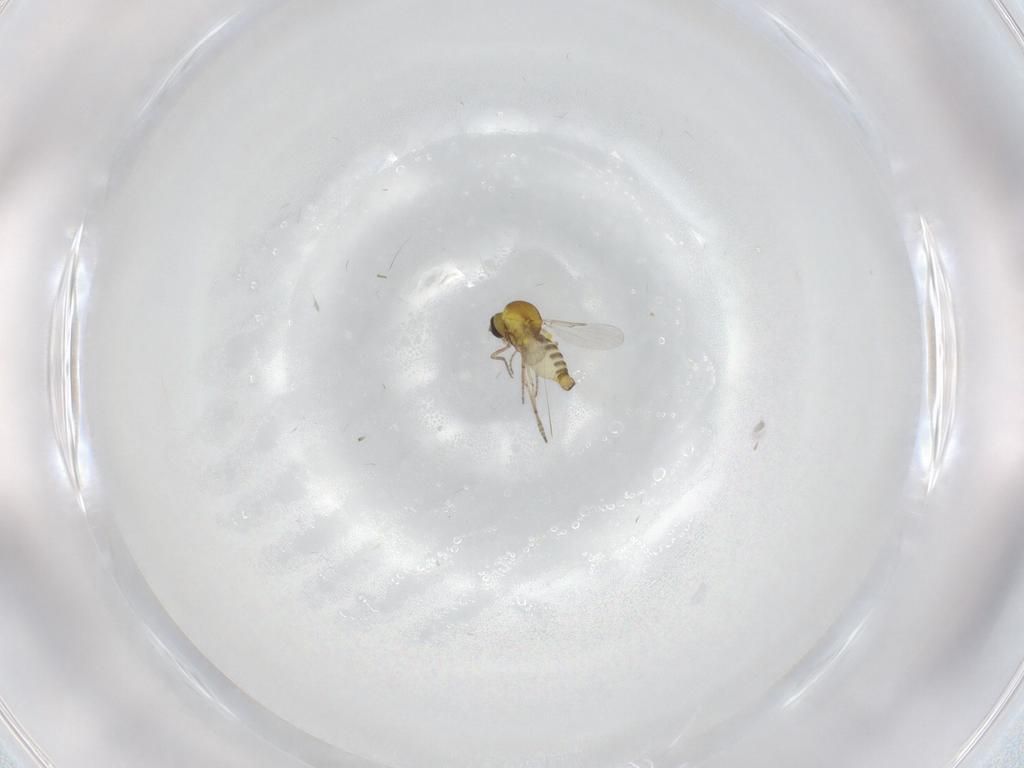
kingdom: Animalia
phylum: Arthropoda
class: Insecta
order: Diptera
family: Ceratopogonidae
